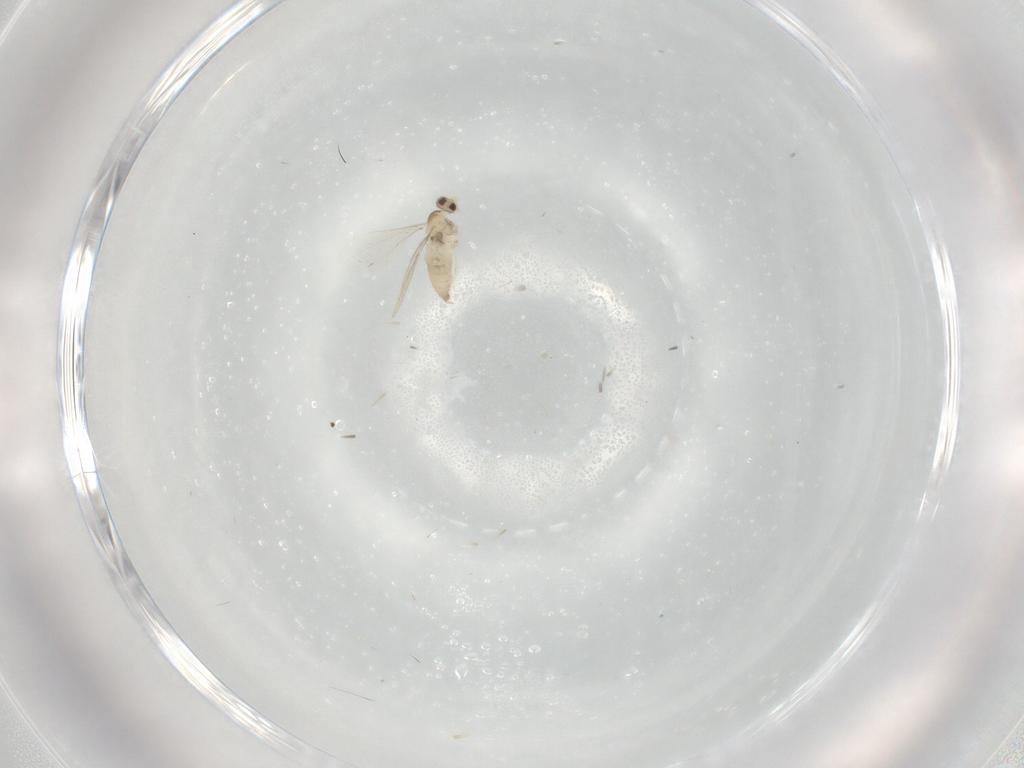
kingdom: Animalia
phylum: Arthropoda
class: Insecta
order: Diptera
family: Cecidomyiidae
